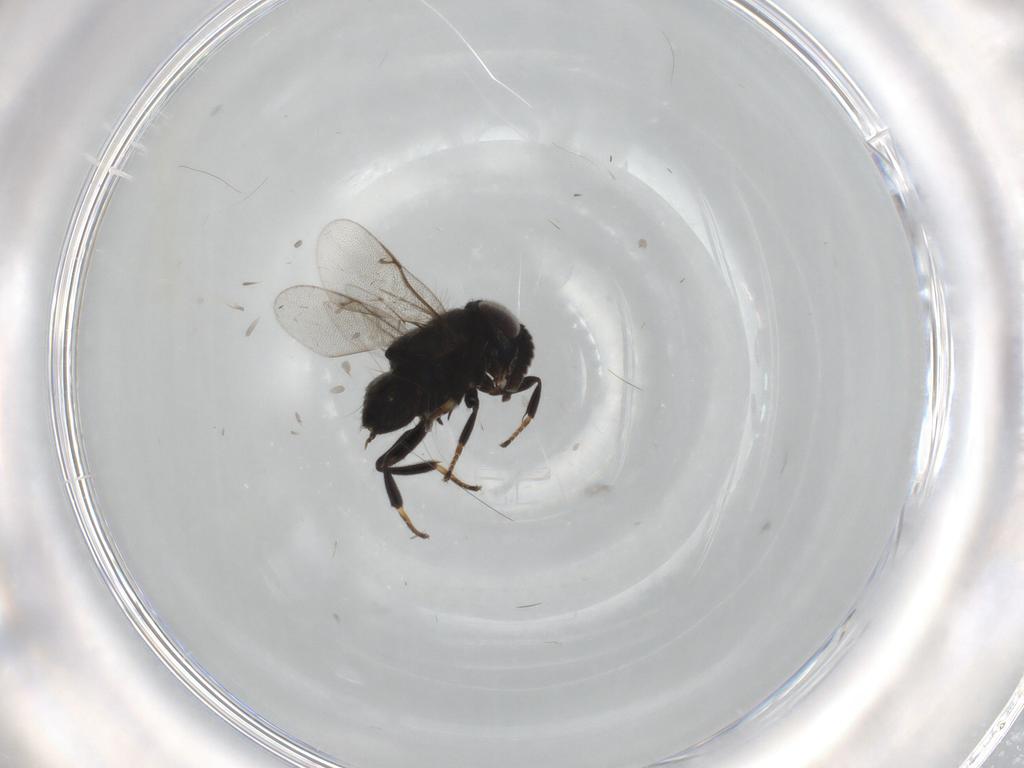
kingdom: Animalia
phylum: Arthropoda
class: Insecta
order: Hymenoptera
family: Encyrtidae
